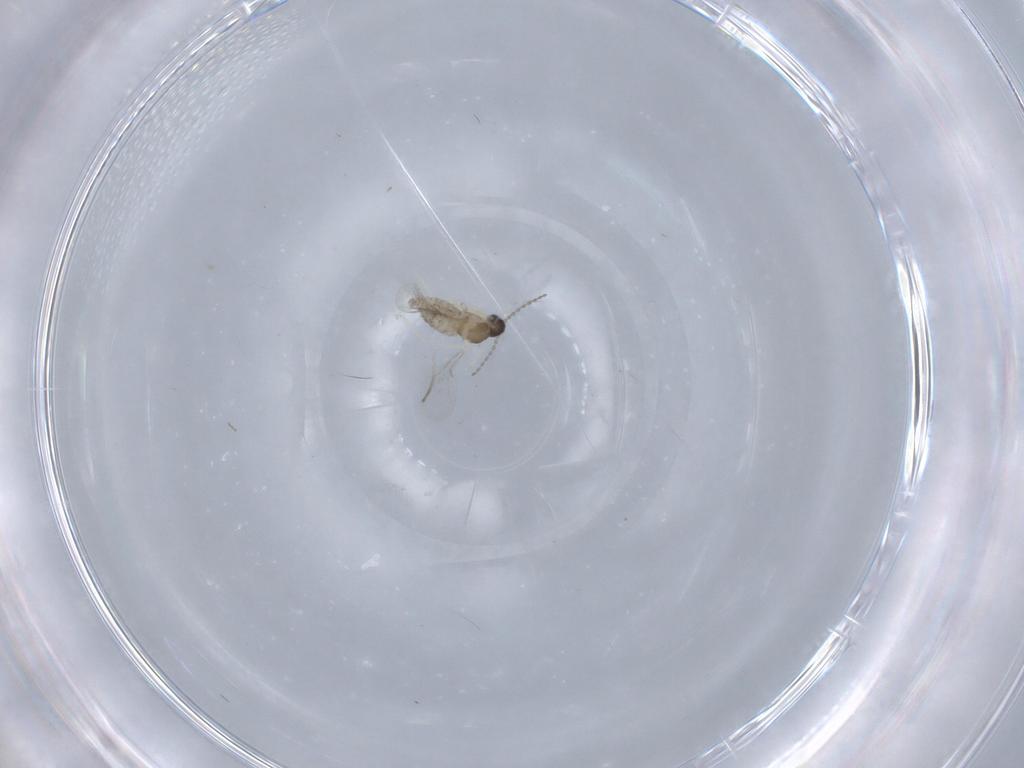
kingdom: Animalia
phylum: Arthropoda
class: Insecta
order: Diptera
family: Cecidomyiidae
